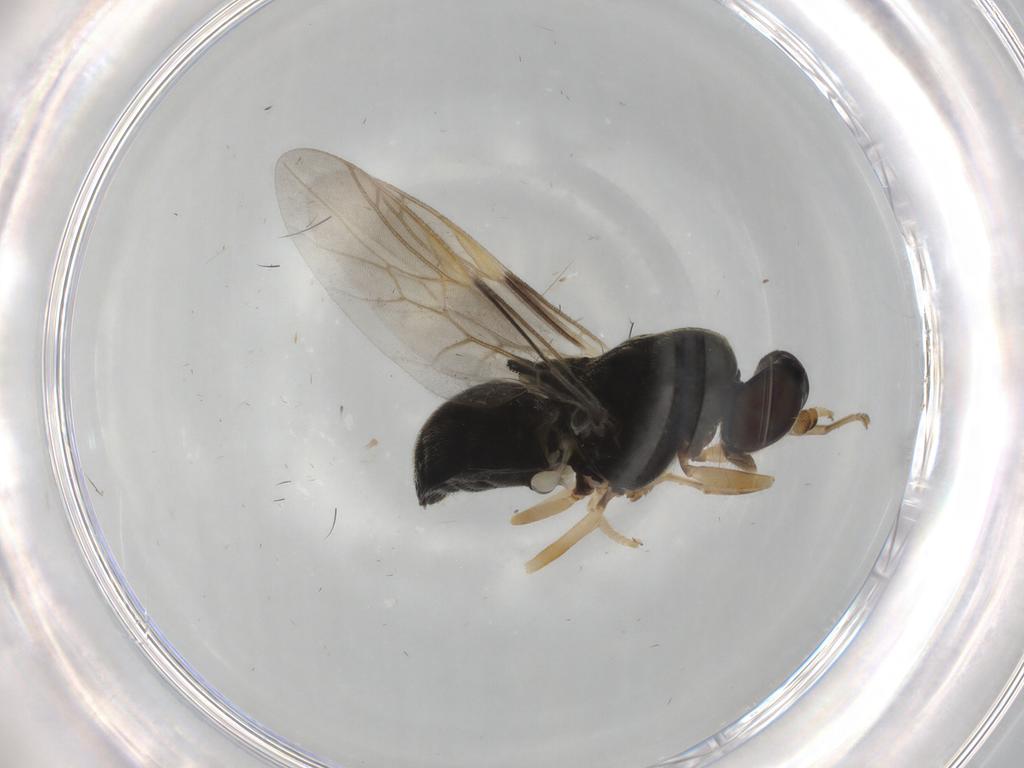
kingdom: Animalia
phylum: Arthropoda
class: Insecta
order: Diptera
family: Stratiomyidae
